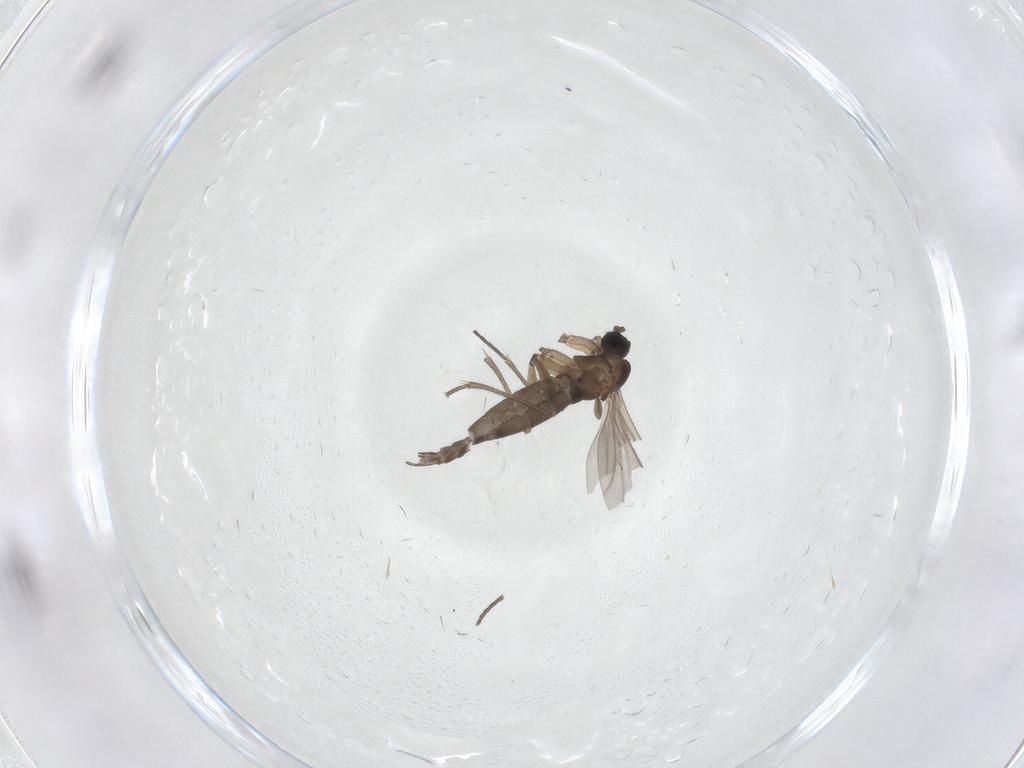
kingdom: Animalia
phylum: Arthropoda
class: Insecta
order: Diptera
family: Sciaridae
